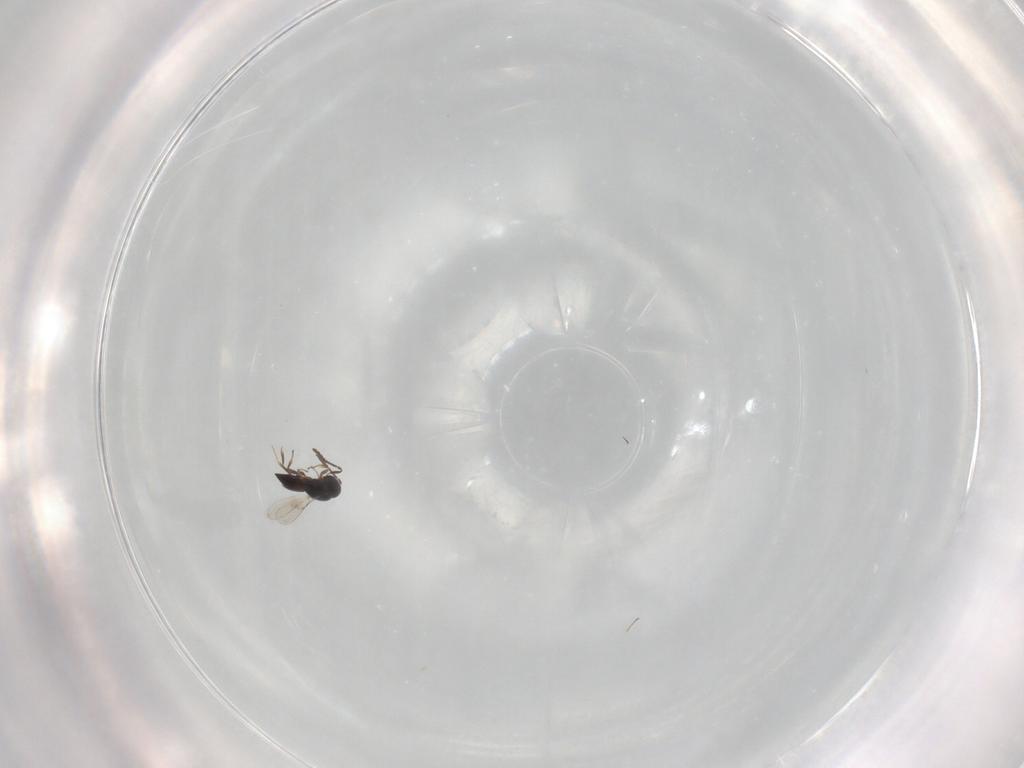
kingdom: Animalia
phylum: Arthropoda
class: Insecta
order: Hymenoptera
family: Scelionidae
